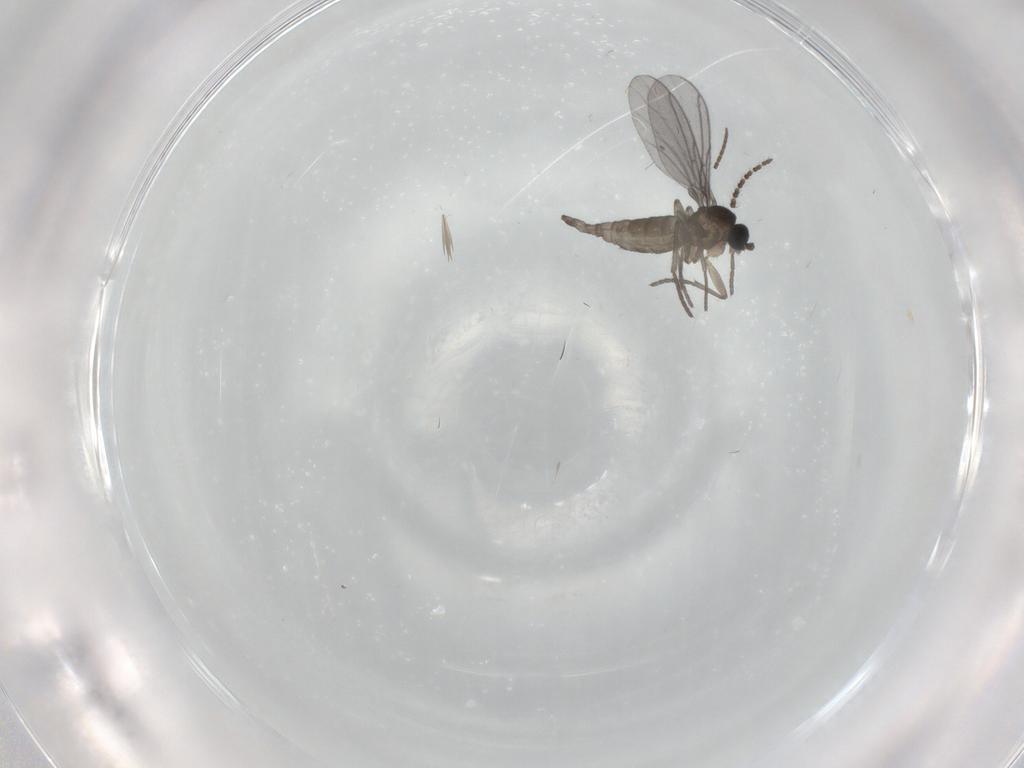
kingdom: Animalia
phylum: Arthropoda
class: Insecta
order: Diptera
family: Cecidomyiidae
